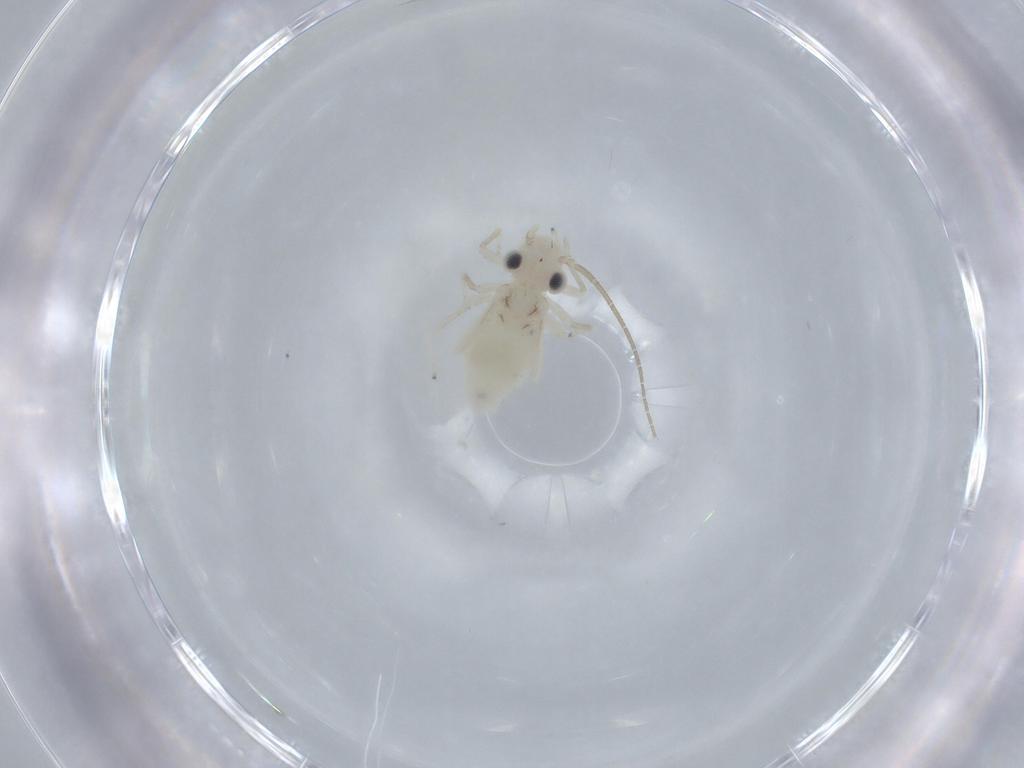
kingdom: Animalia
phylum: Arthropoda
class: Insecta
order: Psocodea
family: Caeciliusidae
